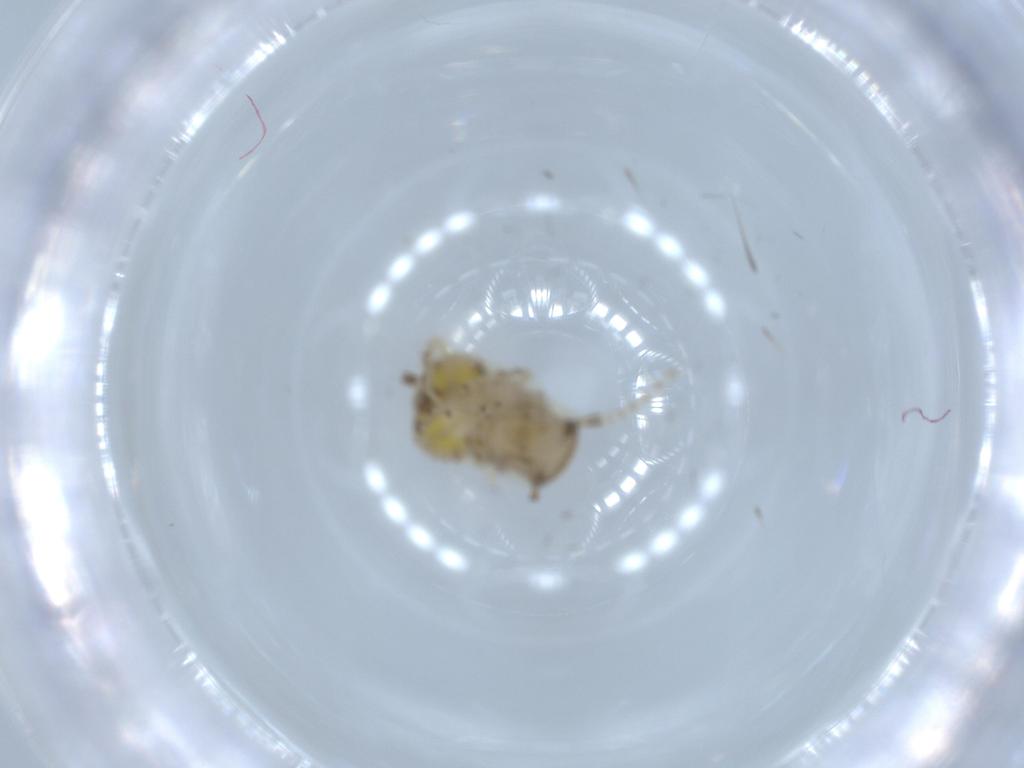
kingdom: Animalia
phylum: Arthropoda
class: Insecta
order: Blattodea
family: Ectobiidae
